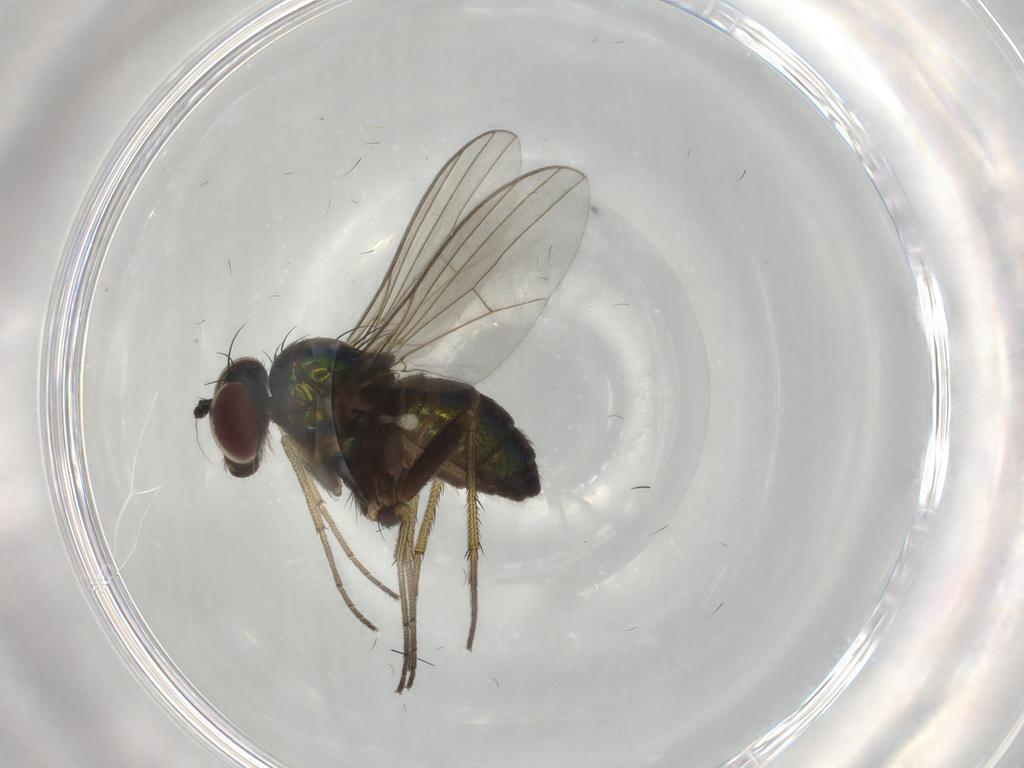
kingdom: Animalia
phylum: Arthropoda
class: Insecta
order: Diptera
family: Dolichopodidae
